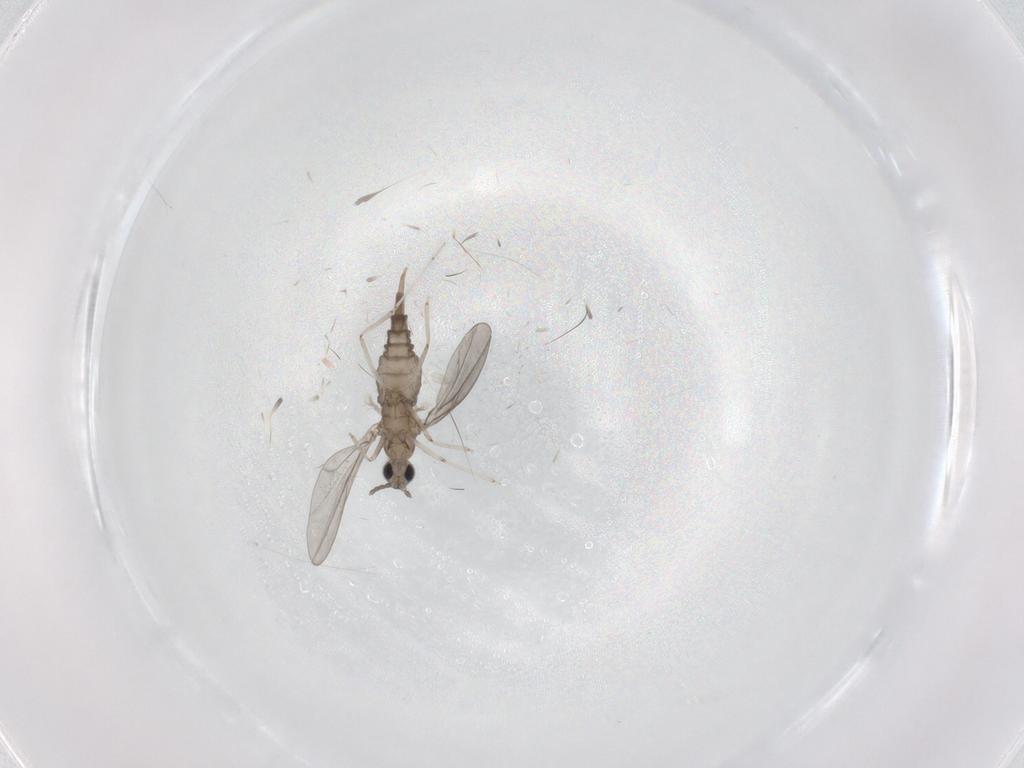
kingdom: Animalia
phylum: Arthropoda
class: Insecta
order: Diptera
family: Cecidomyiidae
